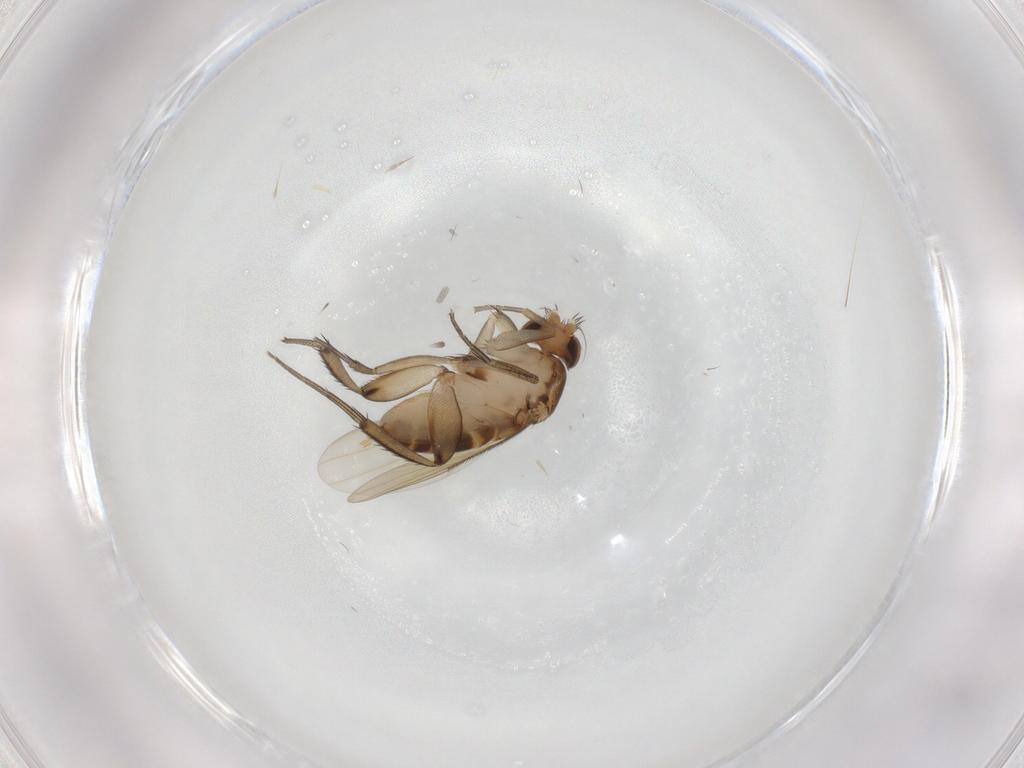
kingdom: Animalia
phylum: Arthropoda
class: Insecta
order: Diptera
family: Phoridae
